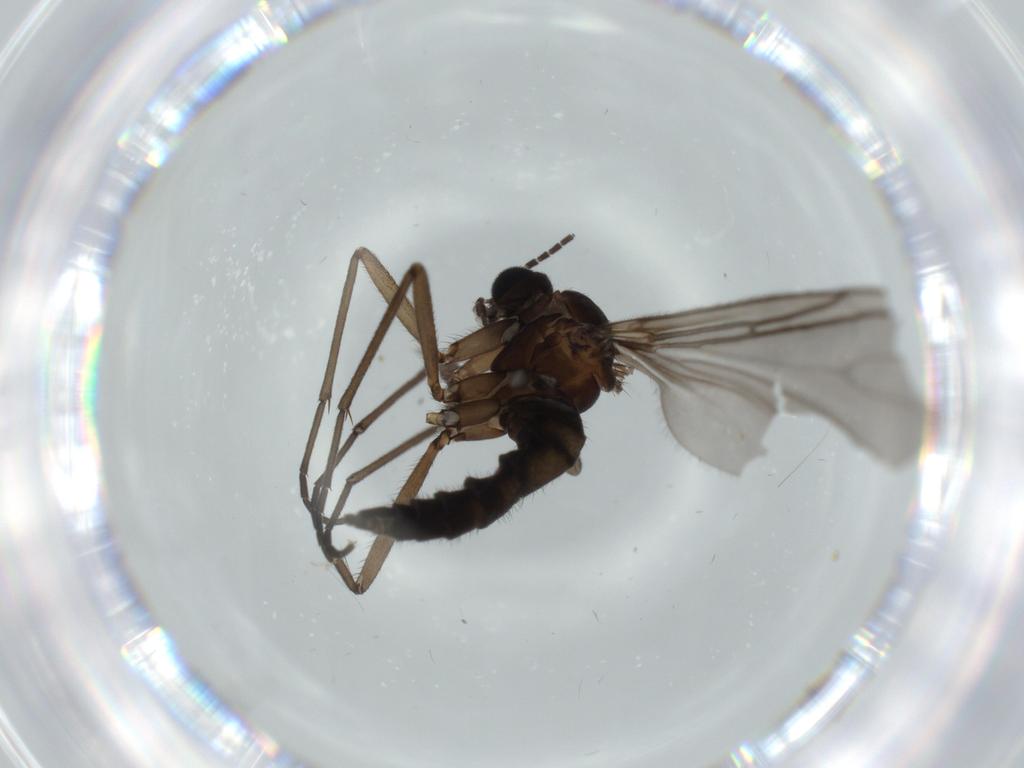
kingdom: Animalia
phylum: Arthropoda
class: Insecta
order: Diptera
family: Sciaridae
